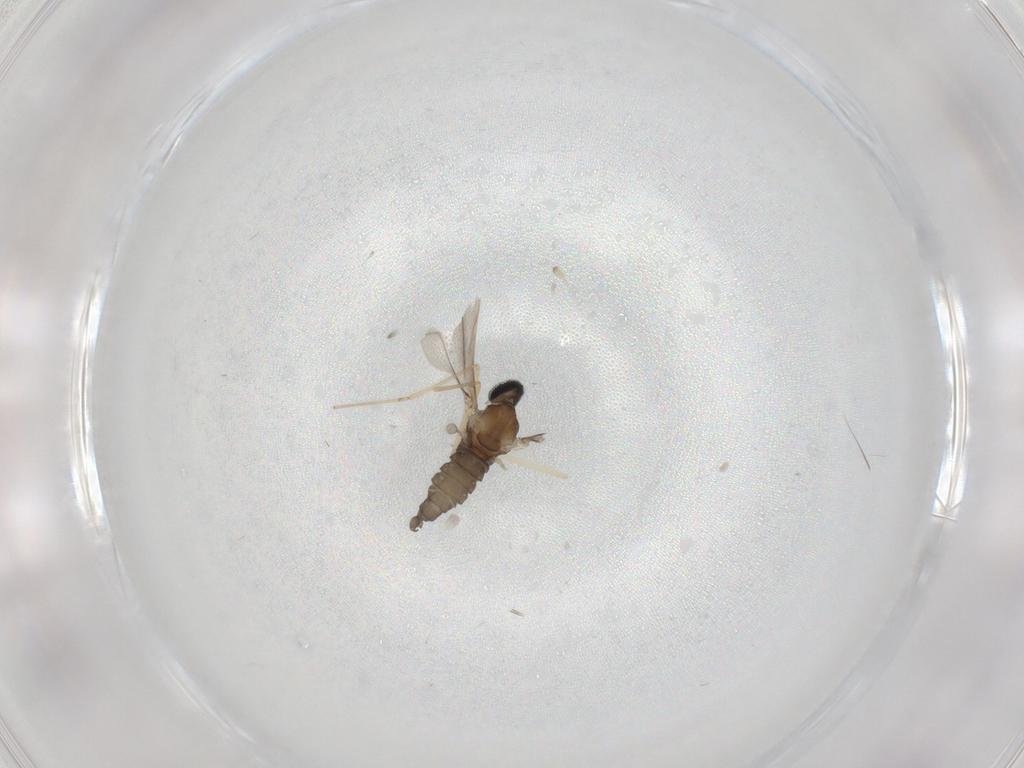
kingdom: Animalia
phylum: Arthropoda
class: Insecta
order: Diptera
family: Cecidomyiidae
